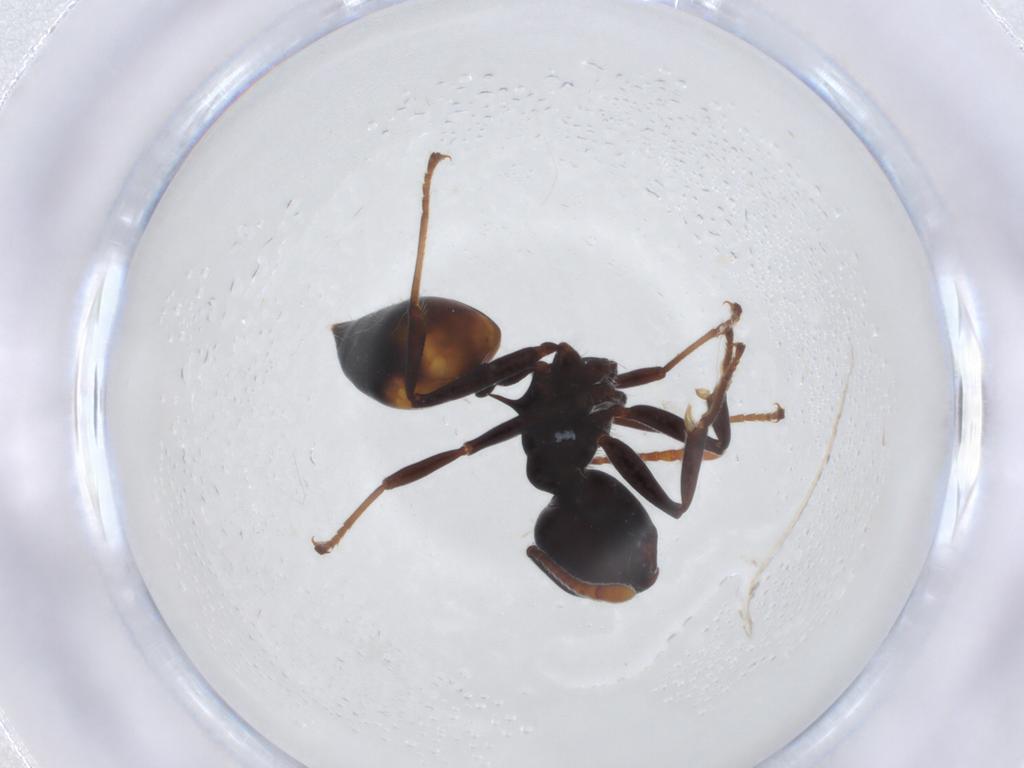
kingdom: Animalia
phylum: Arthropoda
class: Insecta
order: Hymenoptera
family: Formicidae
